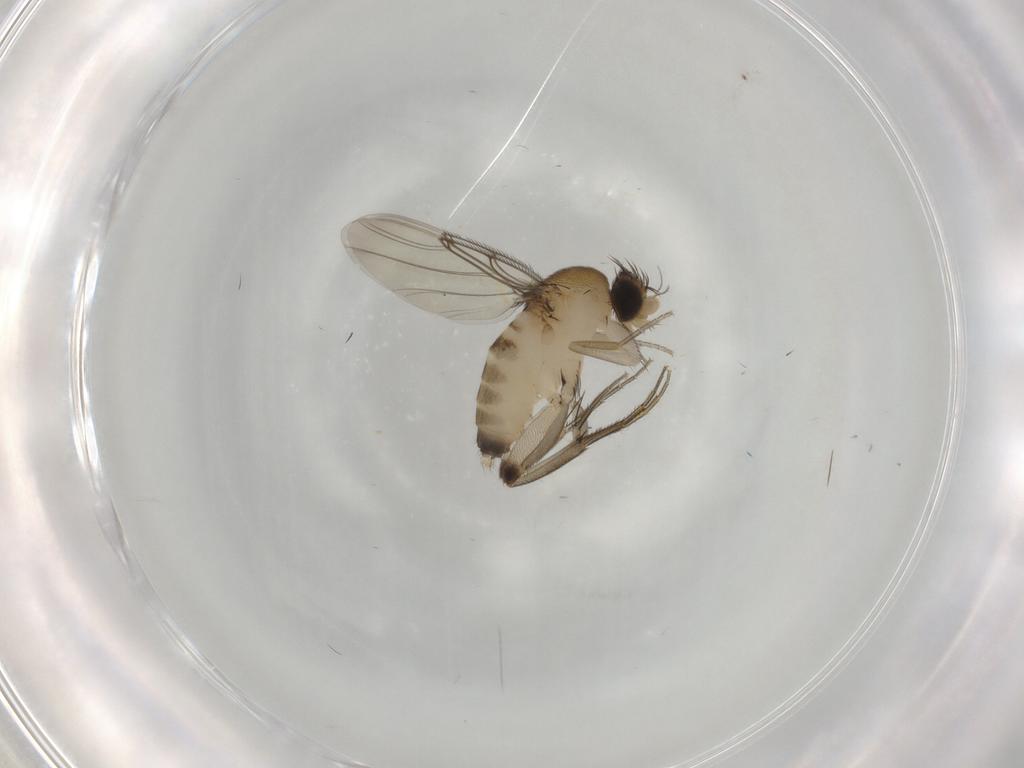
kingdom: Animalia
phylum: Arthropoda
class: Insecta
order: Diptera
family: Phoridae
